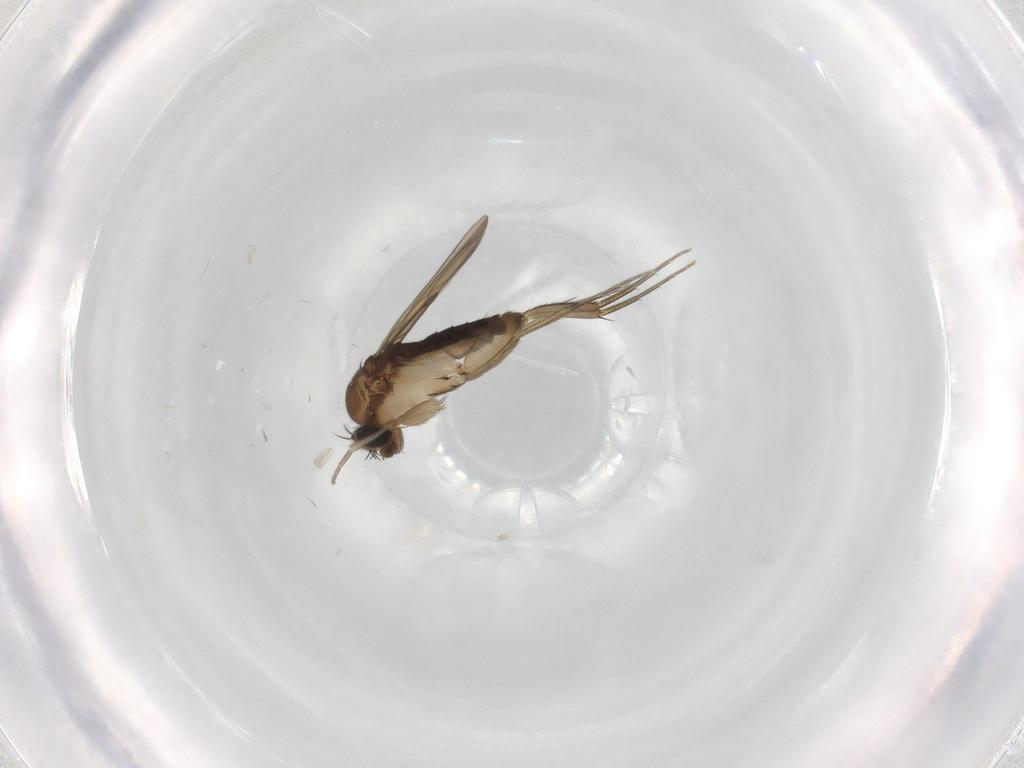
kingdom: Animalia
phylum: Arthropoda
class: Insecta
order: Diptera
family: Phoridae
